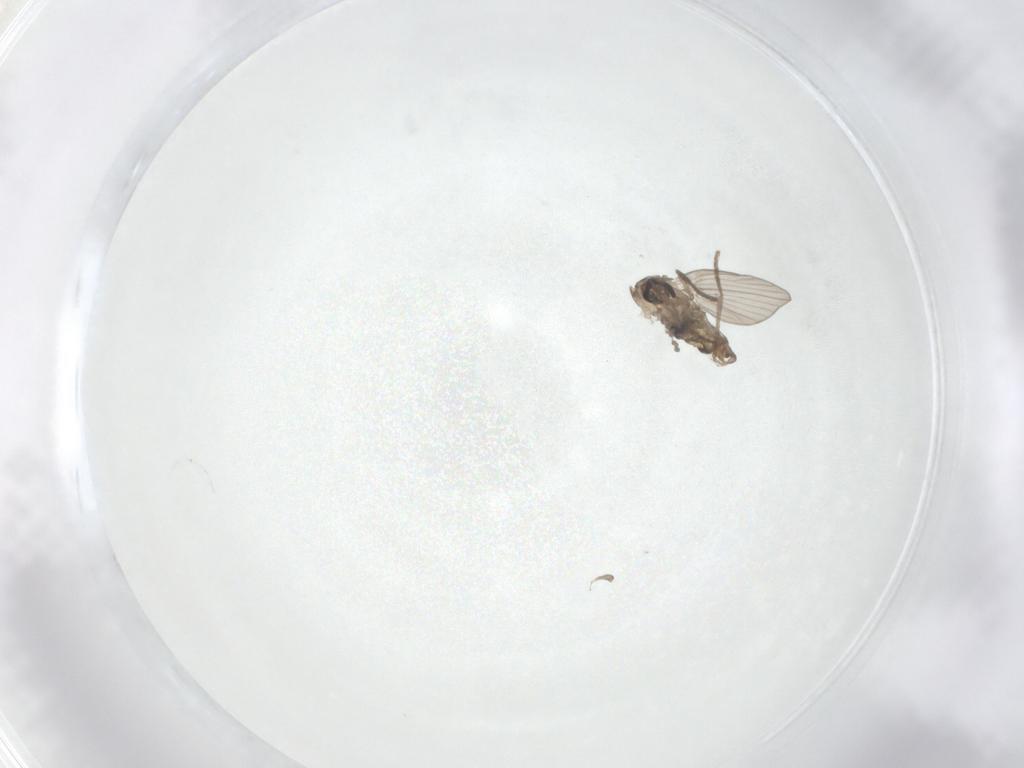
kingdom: Animalia
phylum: Arthropoda
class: Insecta
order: Diptera
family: Psychodidae
